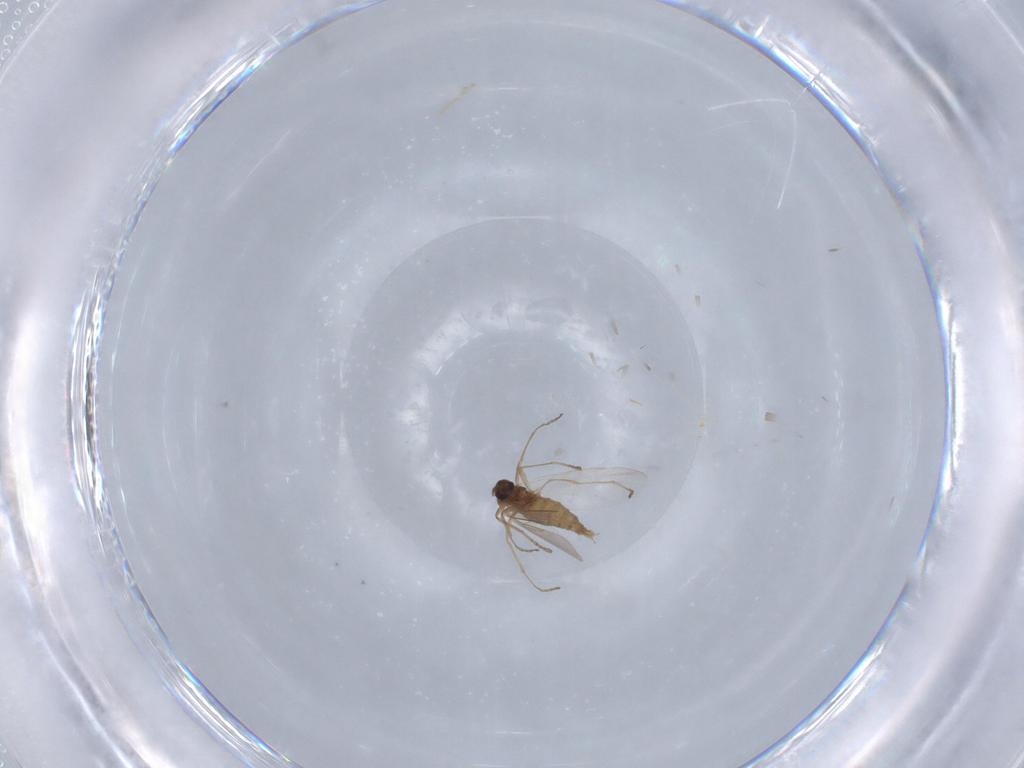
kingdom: Animalia
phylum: Arthropoda
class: Insecta
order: Diptera
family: Cecidomyiidae
